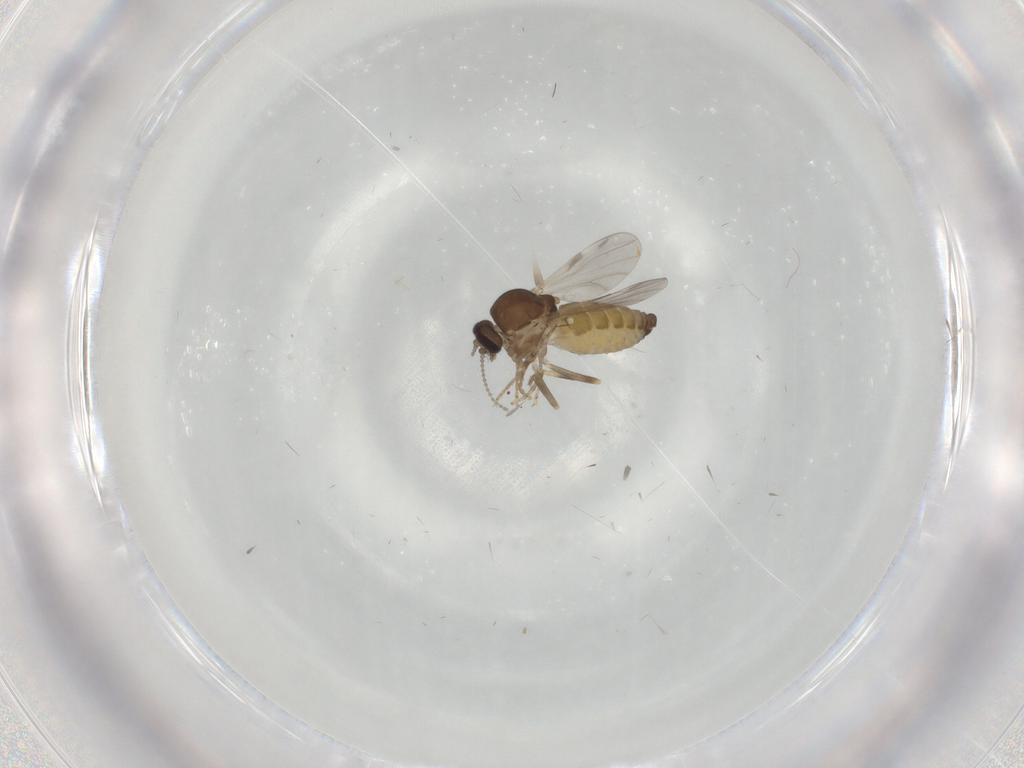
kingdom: Animalia
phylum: Arthropoda
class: Insecta
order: Diptera
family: Ceratopogonidae
